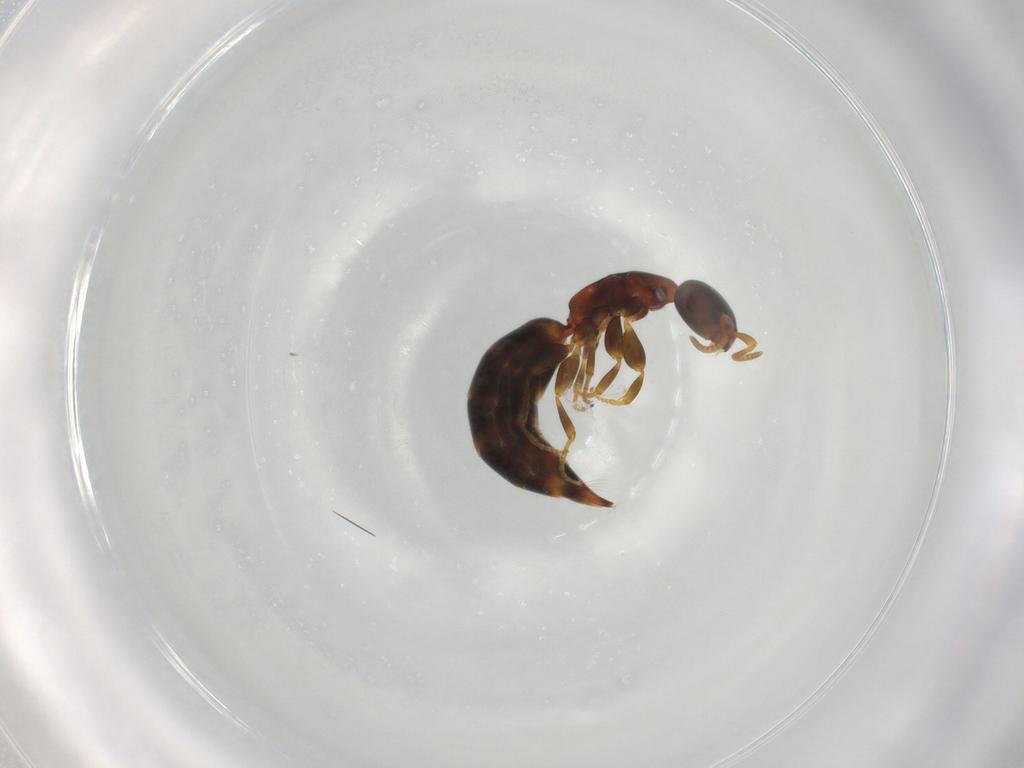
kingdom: Animalia
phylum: Arthropoda
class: Insecta
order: Hymenoptera
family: Bethylidae
